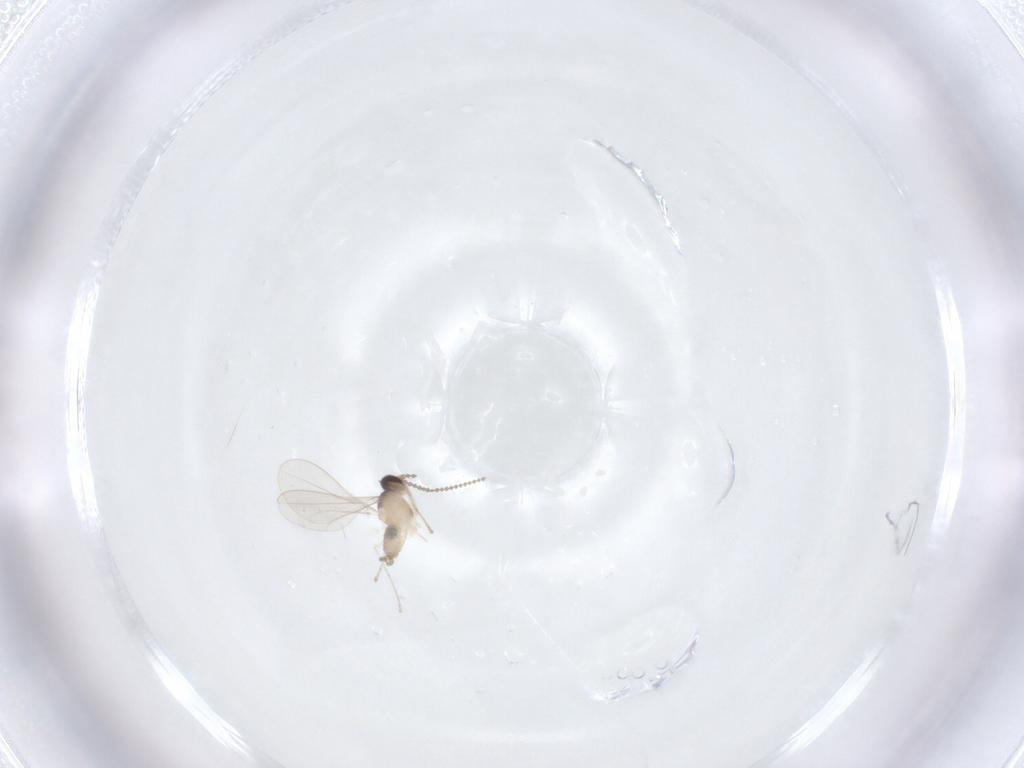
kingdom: Animalia
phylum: Arthropoda
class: Insecta
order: Diptera
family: Cecidomyiidae
